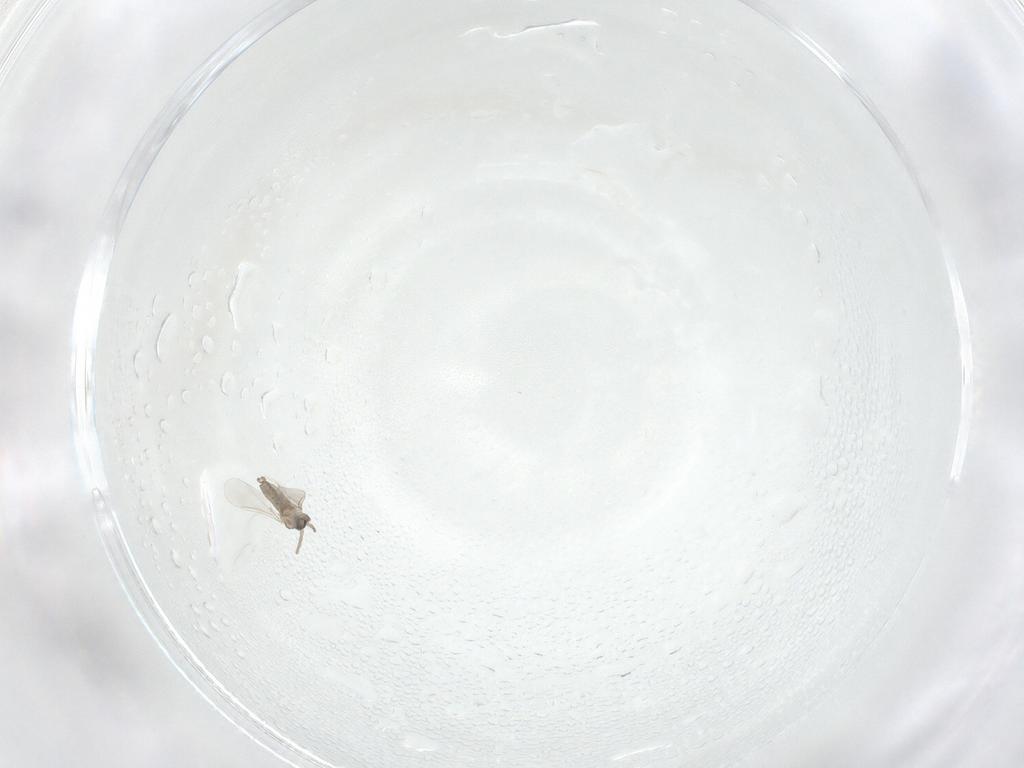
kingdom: Animalia
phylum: Arthropoda
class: Insecta
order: Diptera
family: Cecidomyiidae
